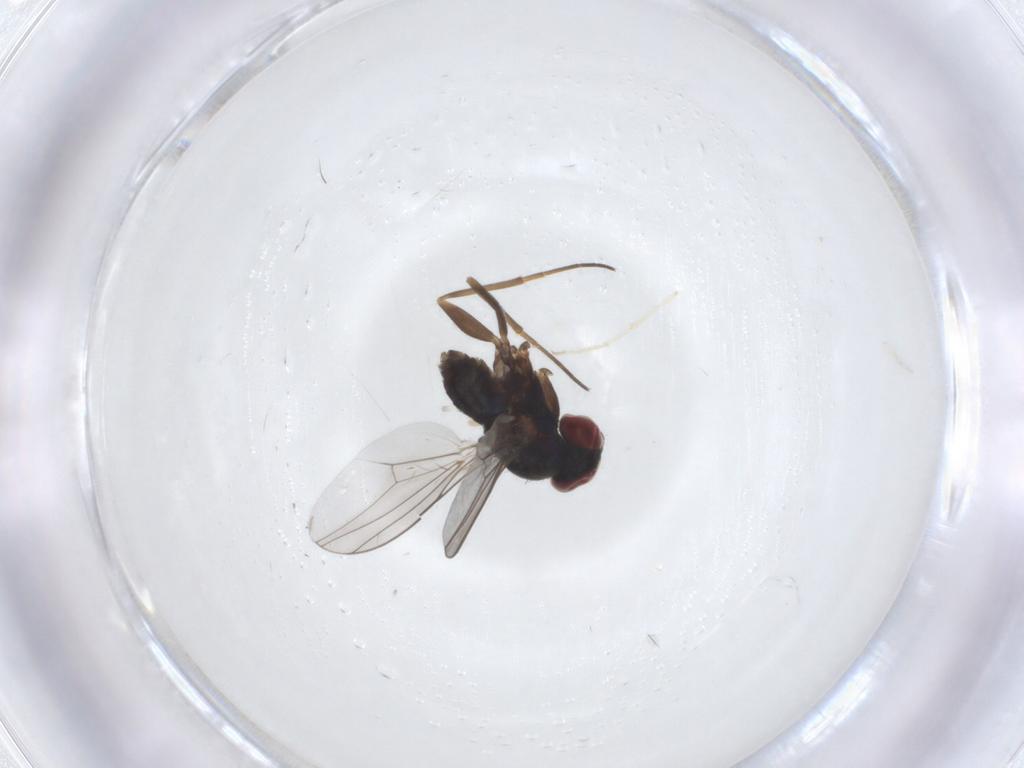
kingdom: Animalia
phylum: Arthropoda
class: Insecta
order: Diptera
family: Dolichopodidae
